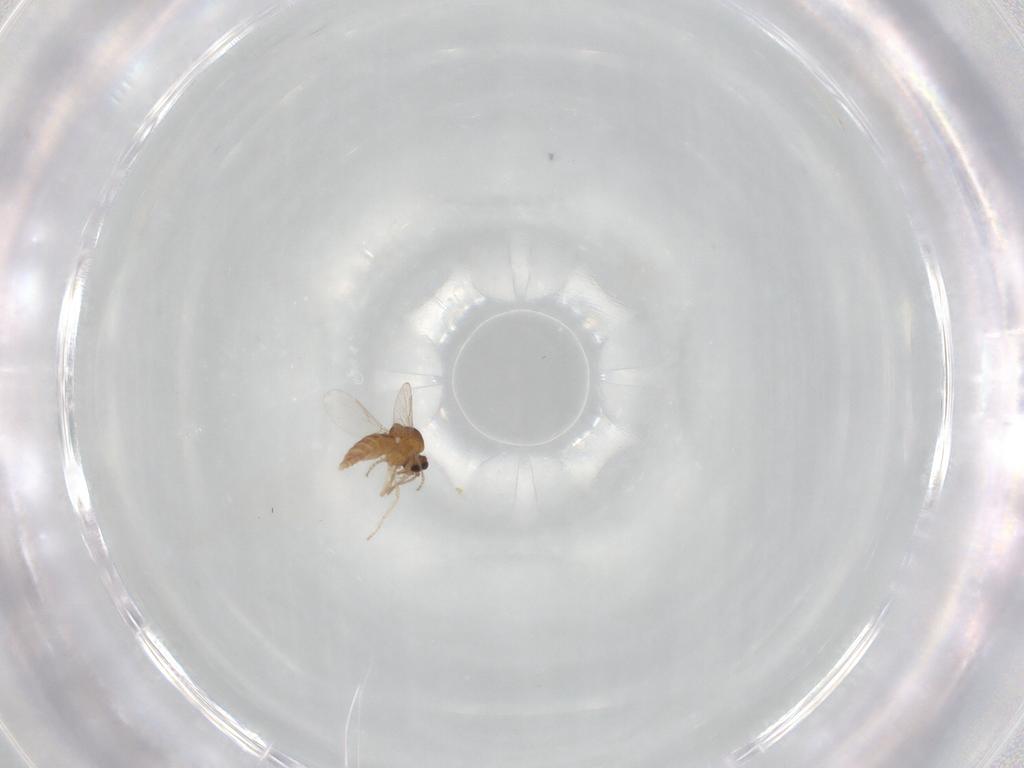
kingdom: Animalia
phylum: Arthropoda
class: Insecta
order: Diptera
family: Ceratopogonidae
